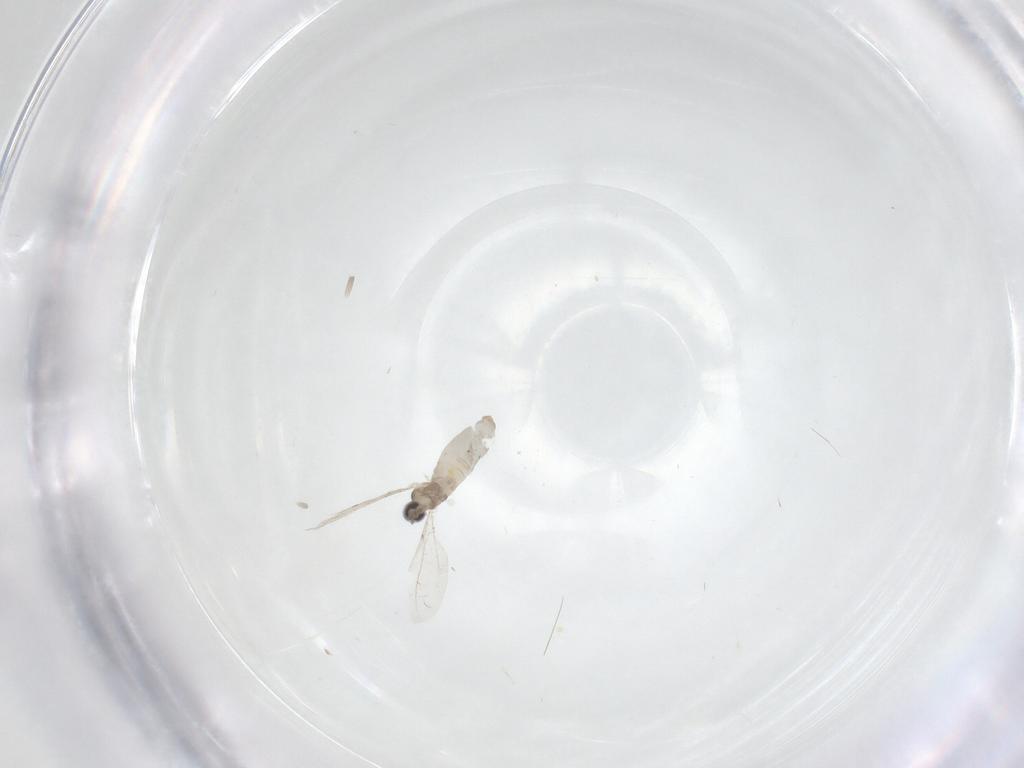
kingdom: Animalia
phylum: Arthropoda
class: Insecta
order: Diptera
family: Cecidomyiidae
